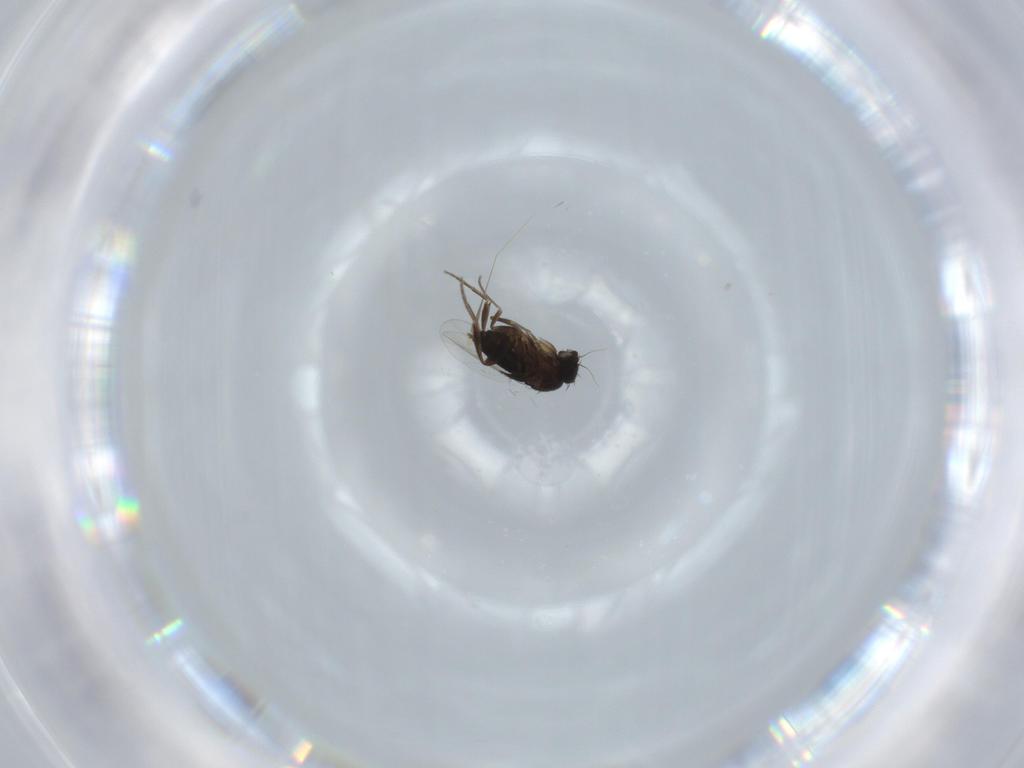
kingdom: Animalia
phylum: Arthropoda
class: Insecta
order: Diptera
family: Phoridae
